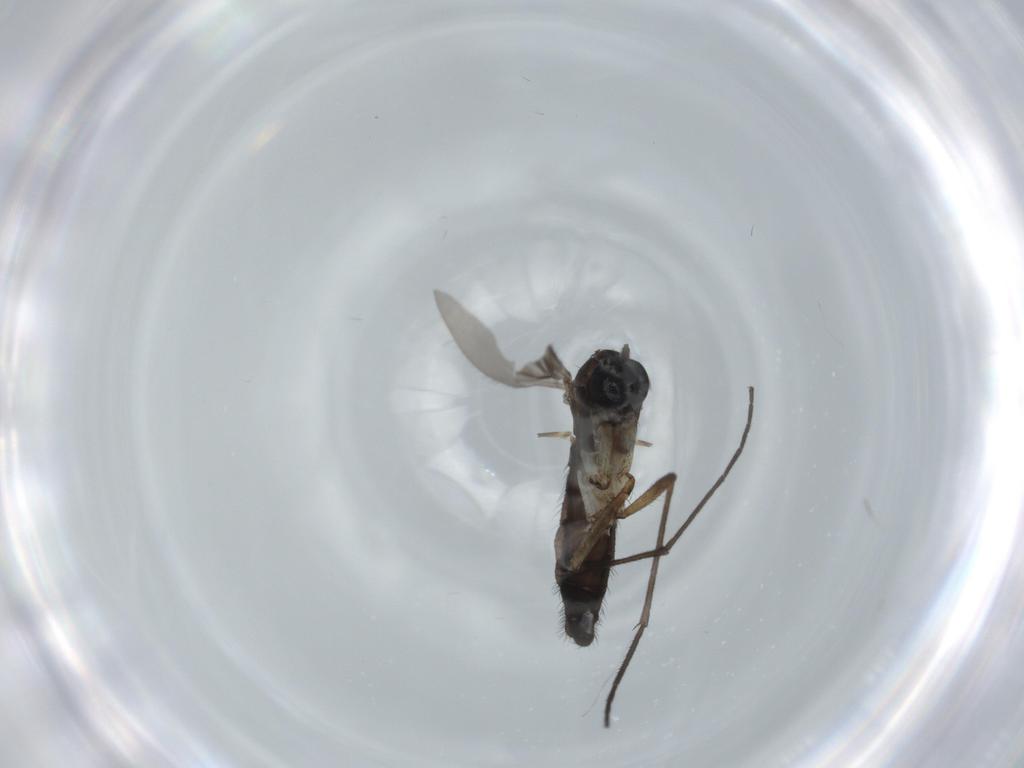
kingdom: Animalia
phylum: Arthropoda
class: Insecta
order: Diptera
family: Sciaridae
